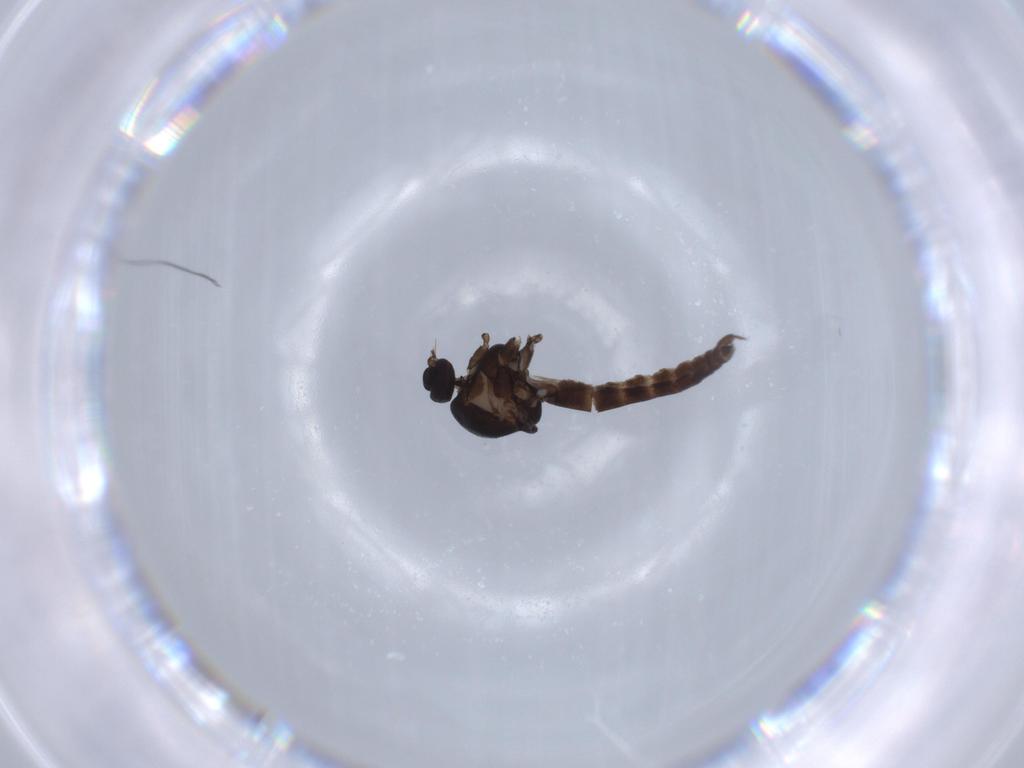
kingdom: Animalia
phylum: Arthropoda
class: Insecta
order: Diptera
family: Ceratopogonidae
